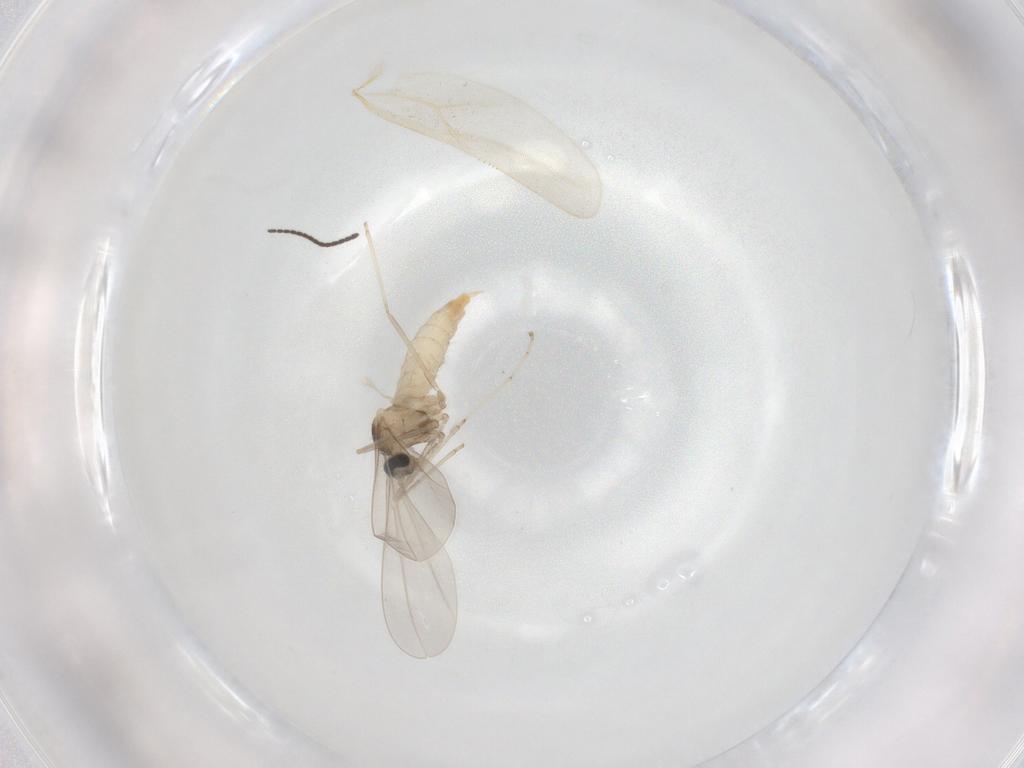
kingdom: Animalia
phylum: Arthropoda
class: Insecta
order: Diptera
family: Cecidomyiidae
